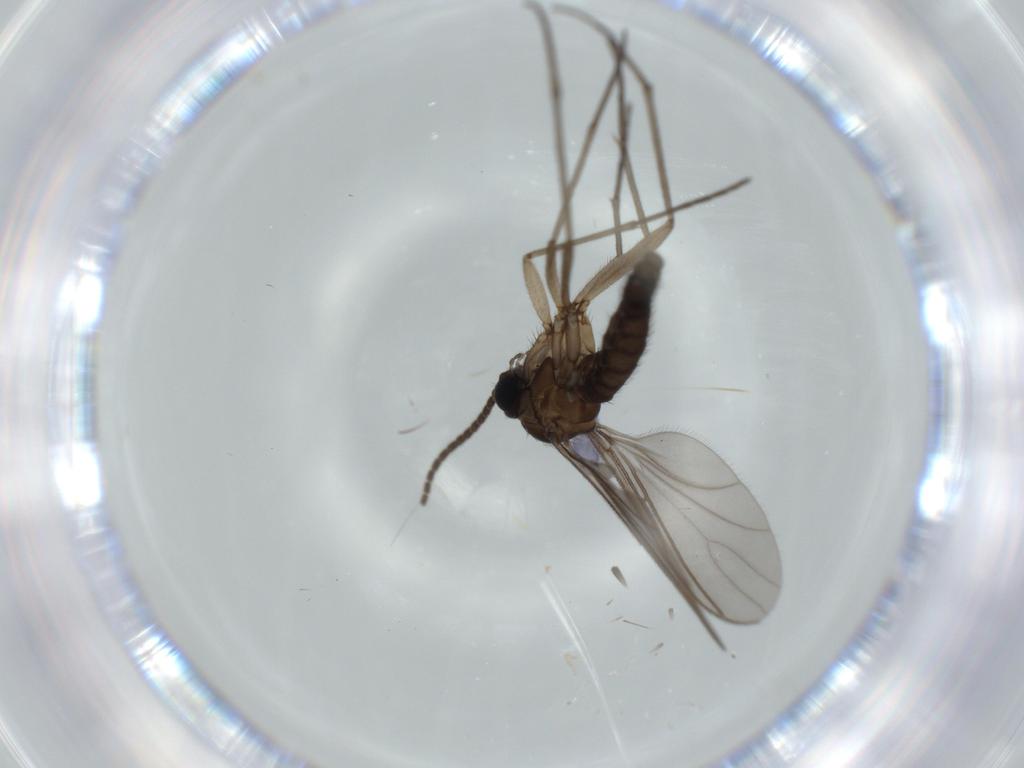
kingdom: Animalia
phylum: Arthropoda
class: Insecta
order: Diptera
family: Sciaridae
